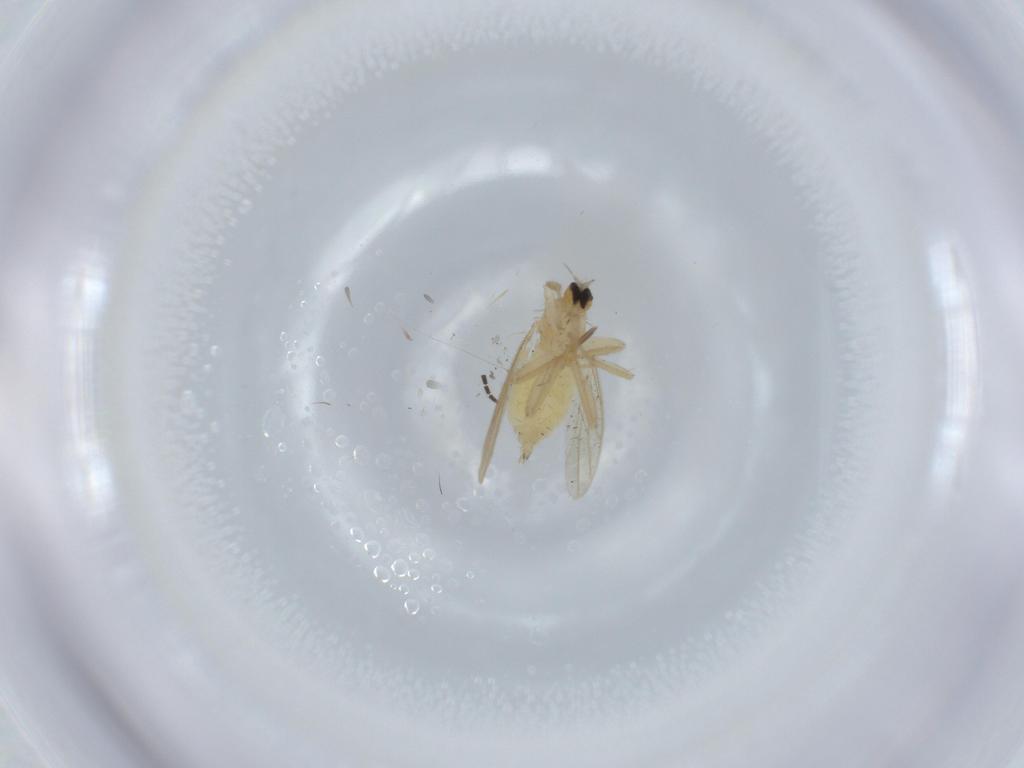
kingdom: Animalia
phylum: Arthropoda
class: Insecta
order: Diptera
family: Hybotidae
